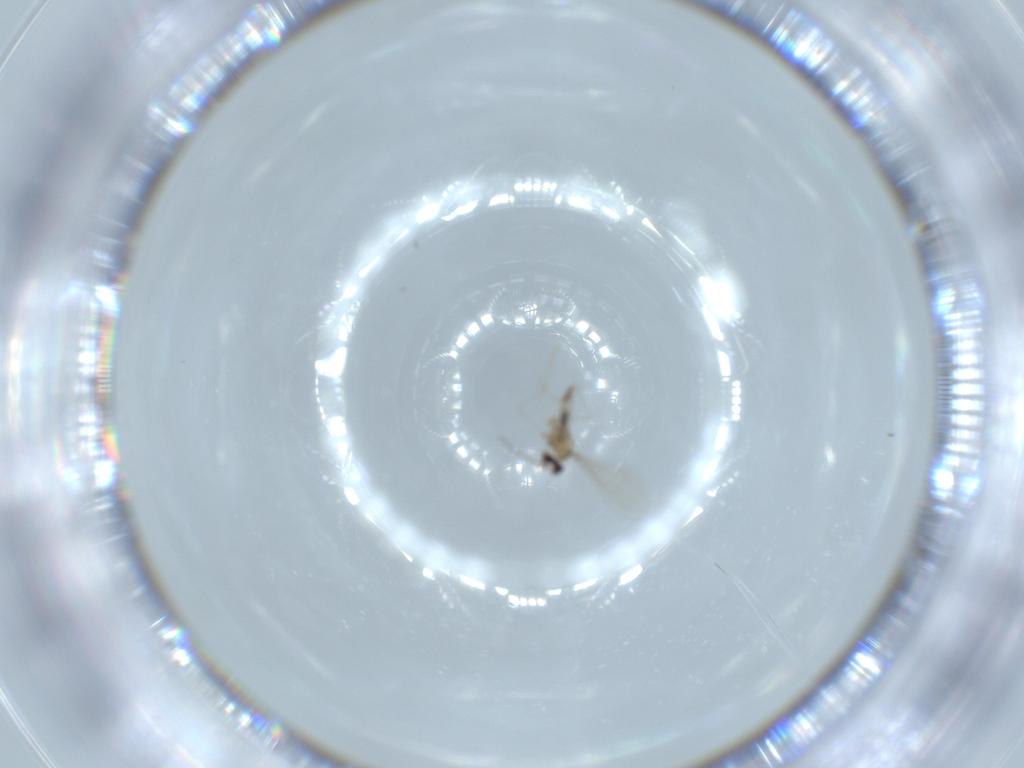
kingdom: Animalia
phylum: Arthropoda
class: Insecta
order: Diptera
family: Cecidomyiidae
